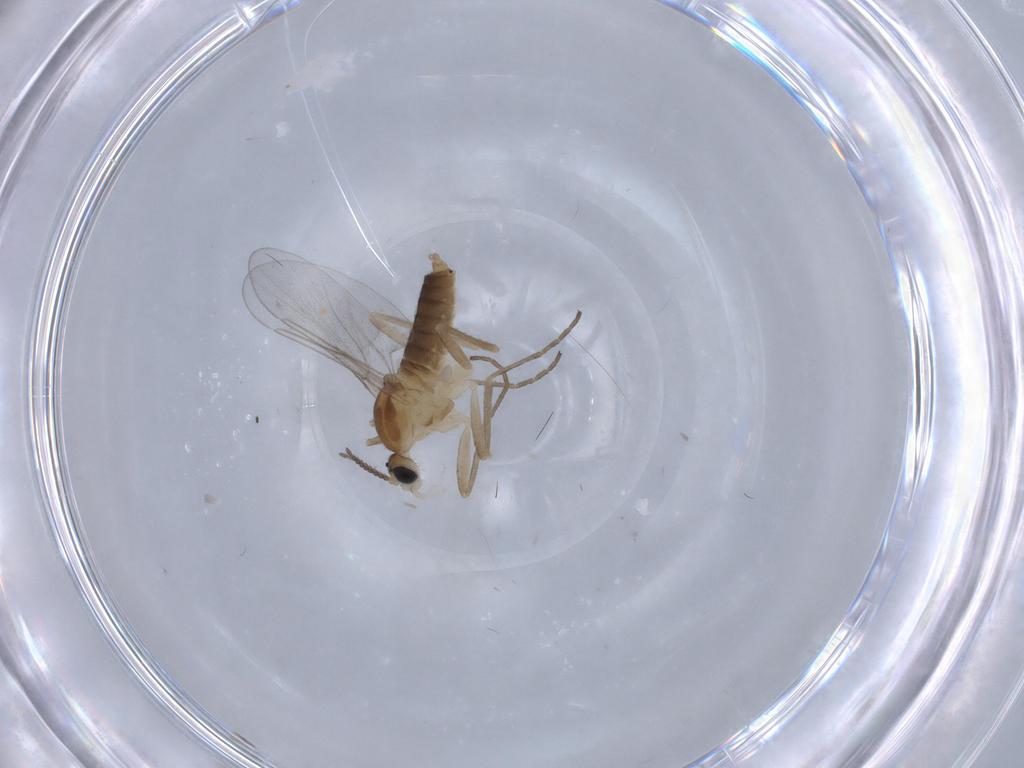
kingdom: Animalia
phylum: Arthropoda
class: Insecta
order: Diptera
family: Cecidomyiidae
